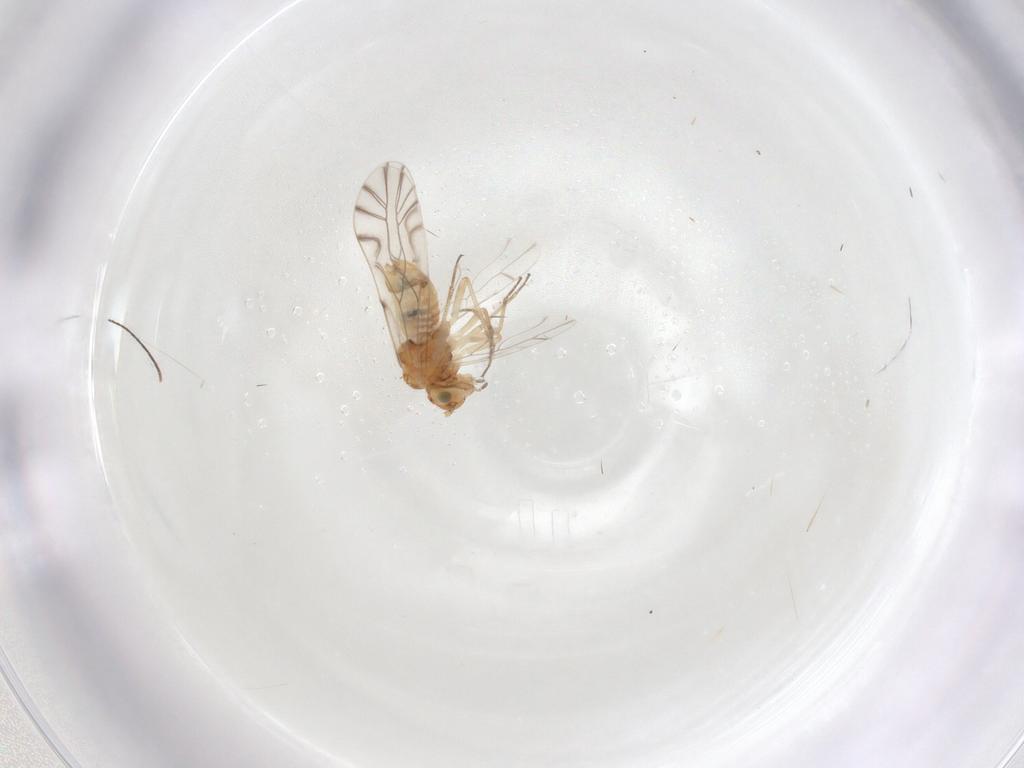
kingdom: Animalia
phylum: Arthropoda
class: Insecta
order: Psocodea
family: Lachesillidae
